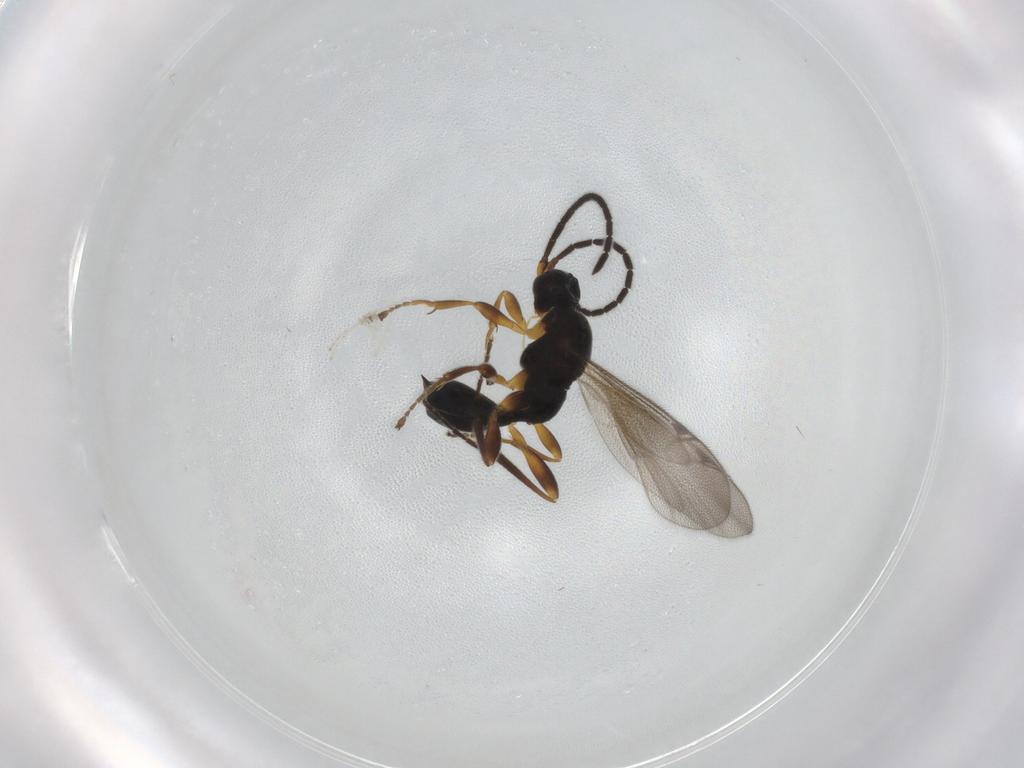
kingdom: Animalia
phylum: Arthropoda
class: Insecta
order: Hymenoptera
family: Proctotrupidae
